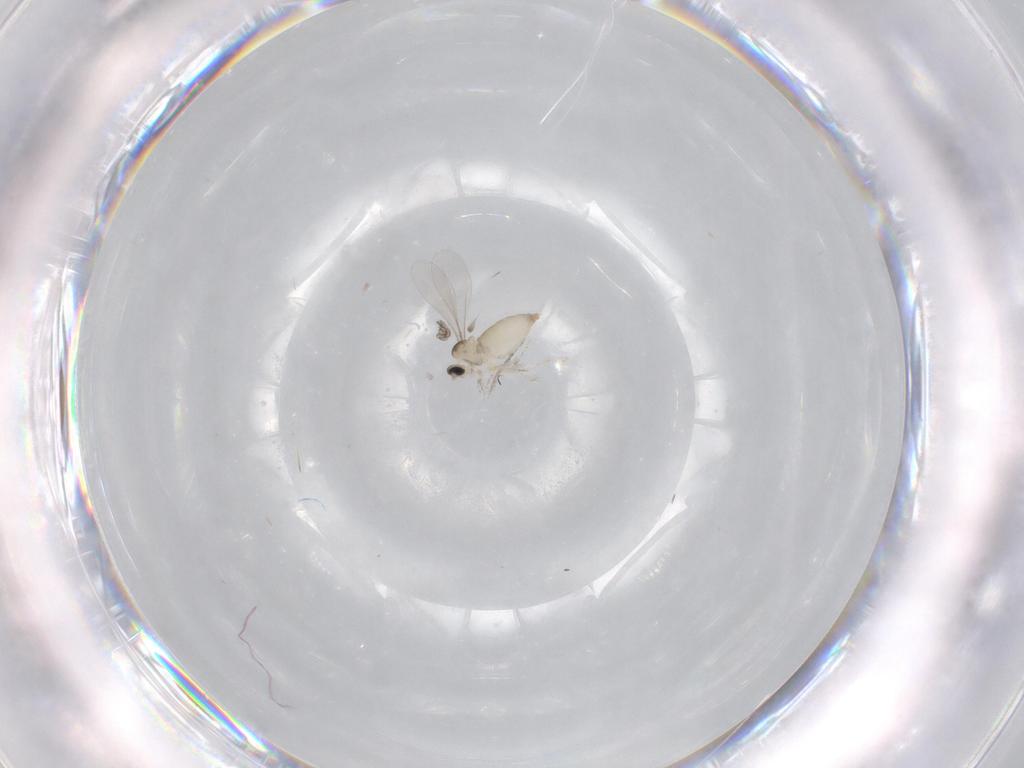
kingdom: Animalia
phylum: Arthropoda
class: Insecta
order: Diptera
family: Cecidomyiidae
